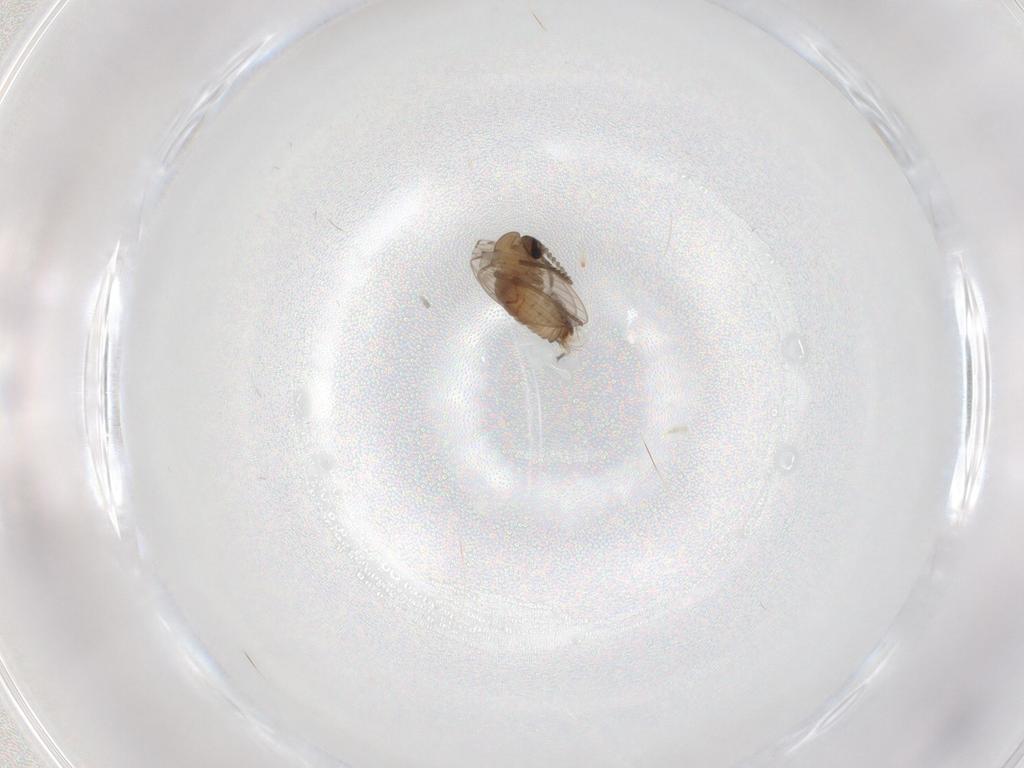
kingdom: Animalia
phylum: Arthropoda
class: Insecta
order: Diptera
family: Psychodidae
